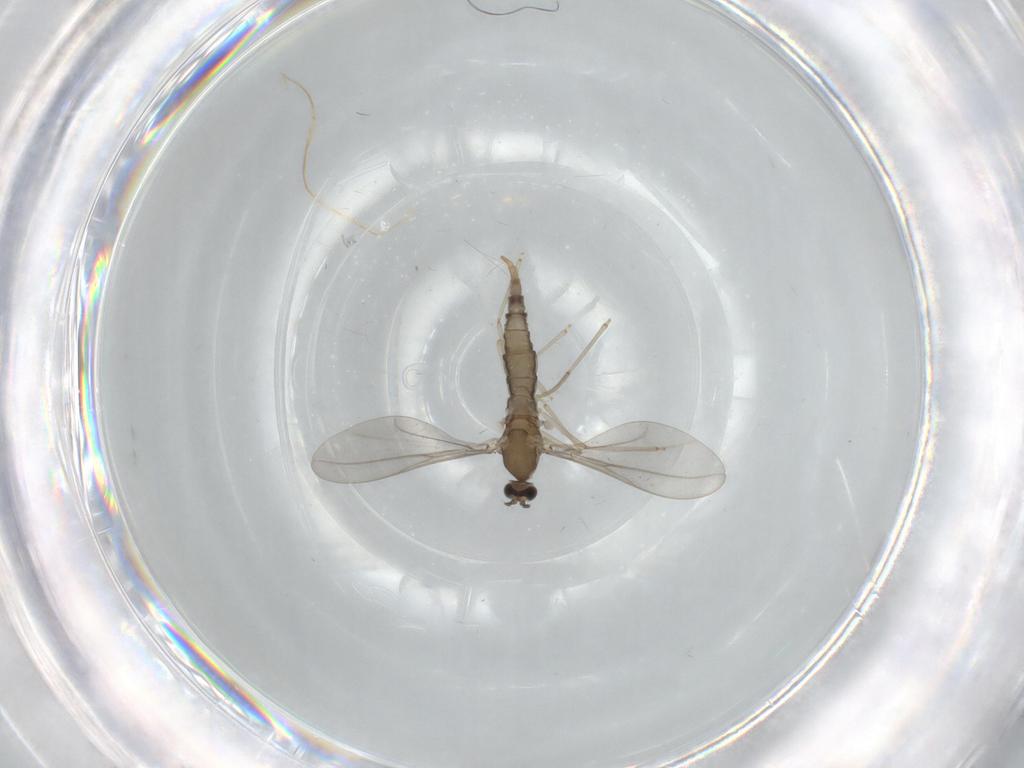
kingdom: Animalia
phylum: Arthropoda
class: Insecta
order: Diptera
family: Cecidomyiidae
